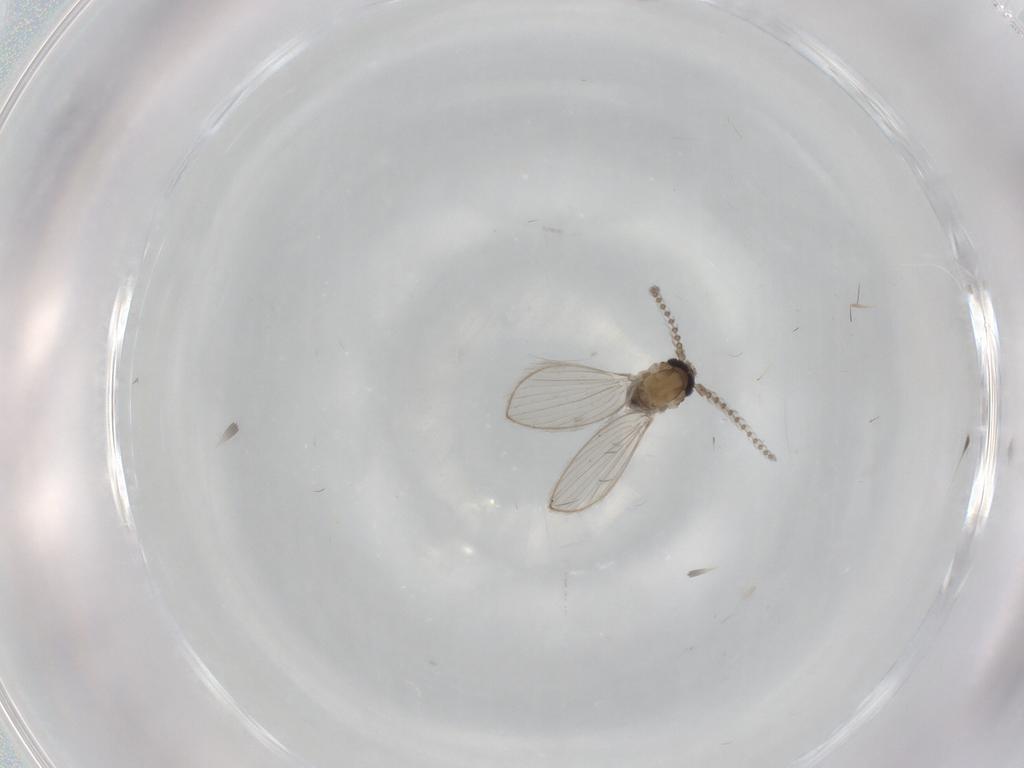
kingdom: Animalia
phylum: Arthropoda
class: Insecta
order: Diptera
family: Psychodidae
